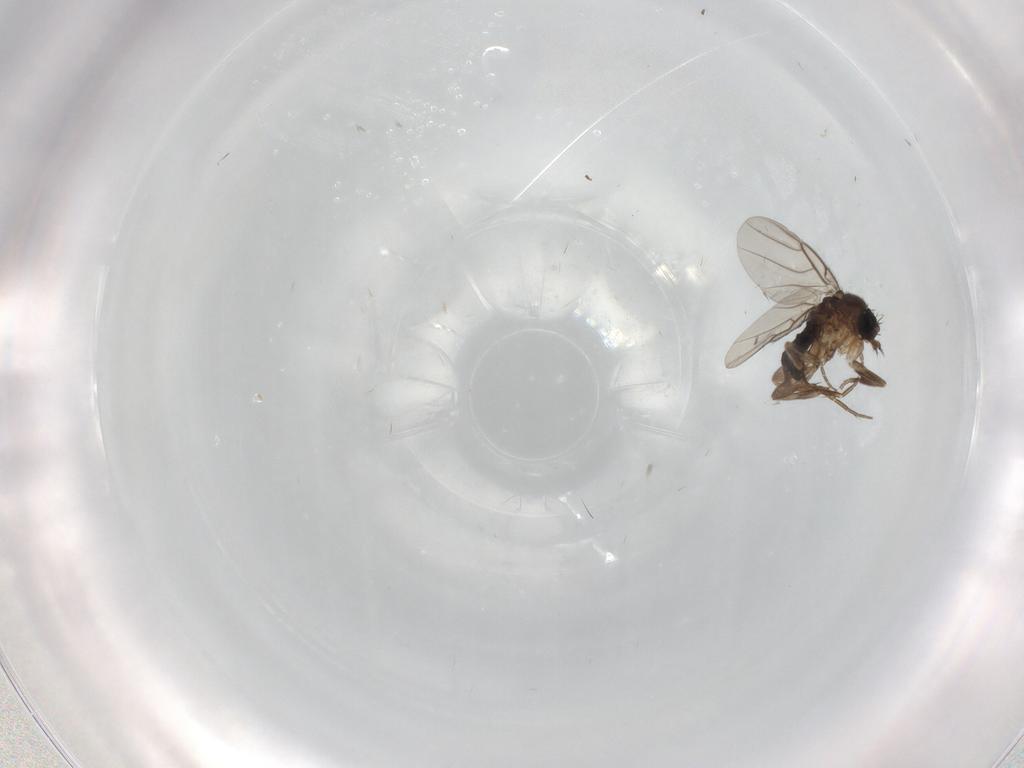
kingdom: Animalia
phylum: Arthropoda
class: Insecta
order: Diptera
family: Phoridae
